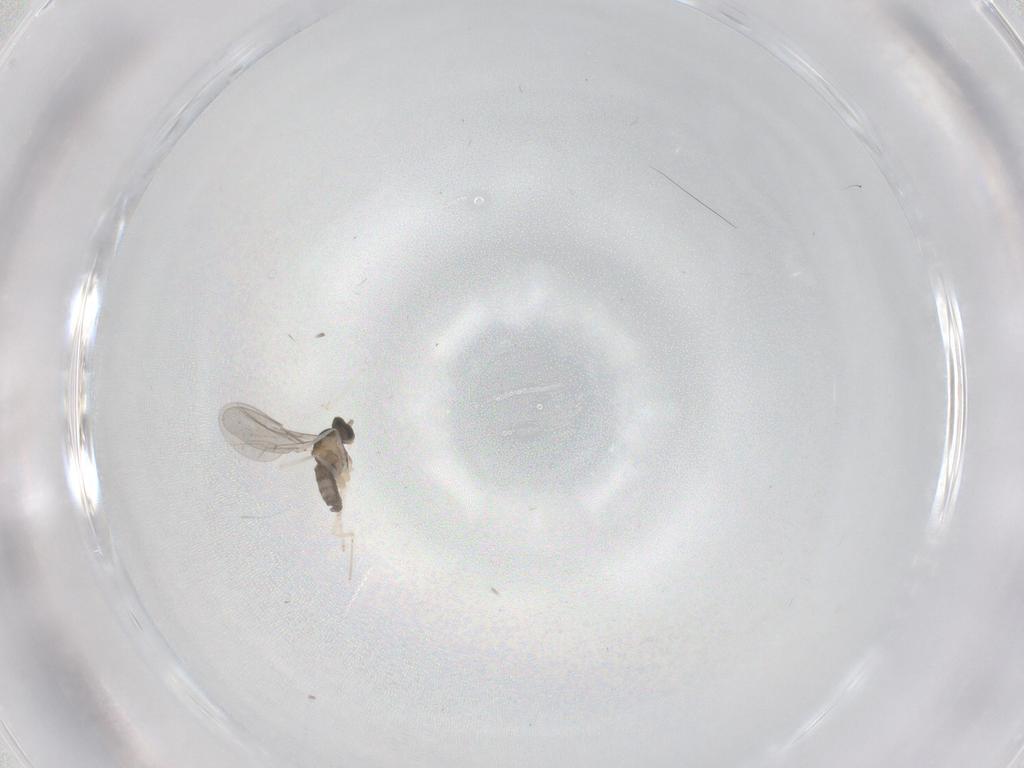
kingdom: Animalia
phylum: Arthropoda
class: Insecta
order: Diptera
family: Cecidomyiidae
